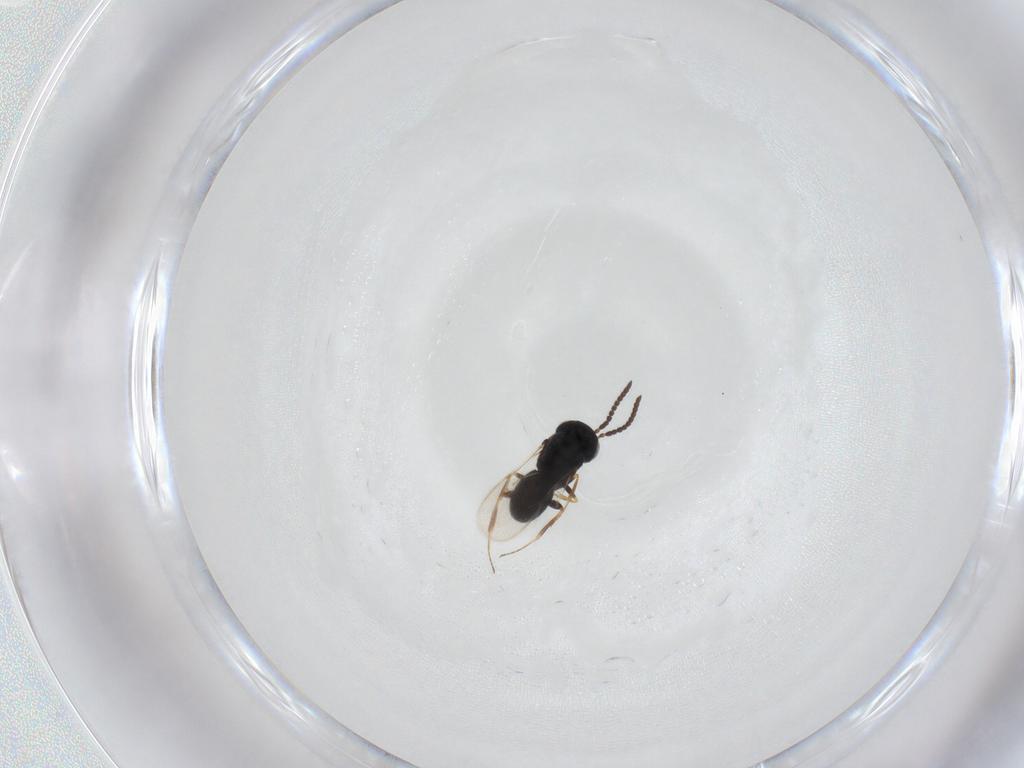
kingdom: Animalia
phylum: Arthropoda
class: Insecta
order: Hymenoptera
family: Scelionidae
